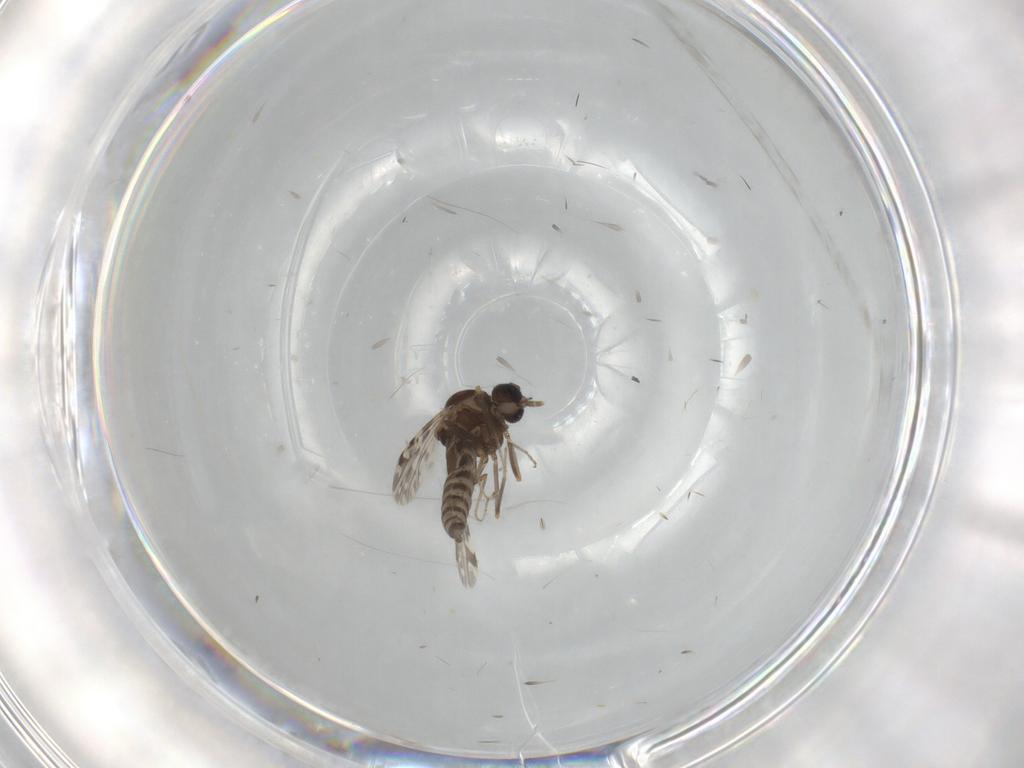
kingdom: Animalia
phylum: Arthropoda
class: Insecta
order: Diptera
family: Ceratopogonidae
